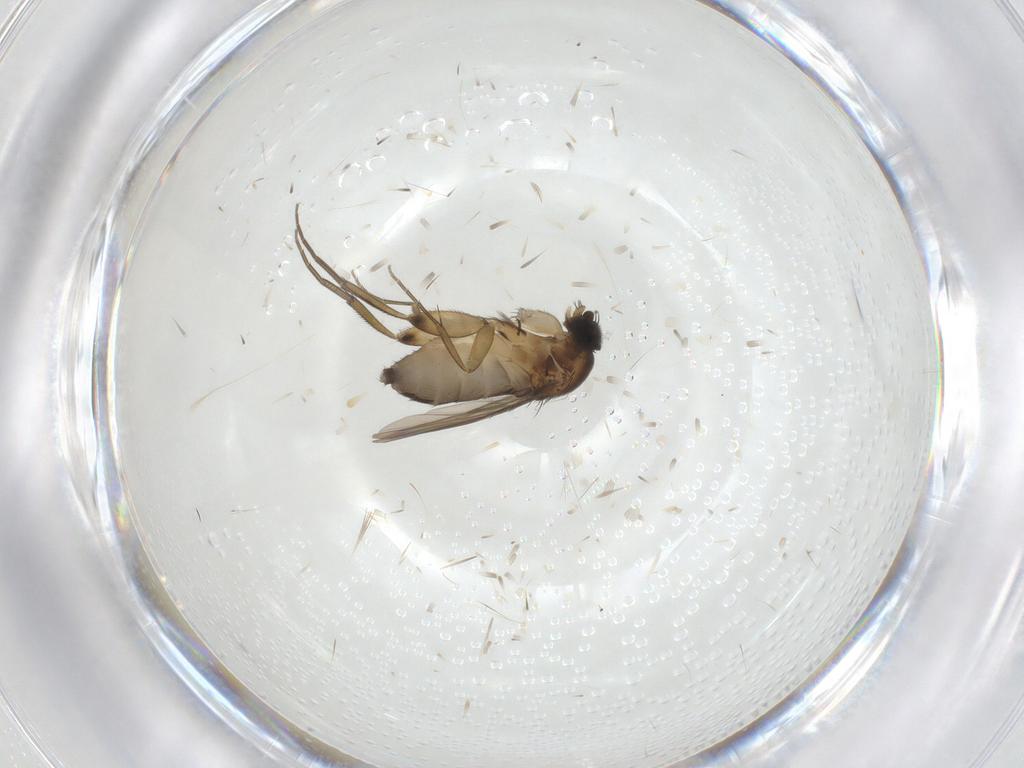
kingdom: Animalia
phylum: Arthropoda
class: Insecta
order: Diptera
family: Phoridae
